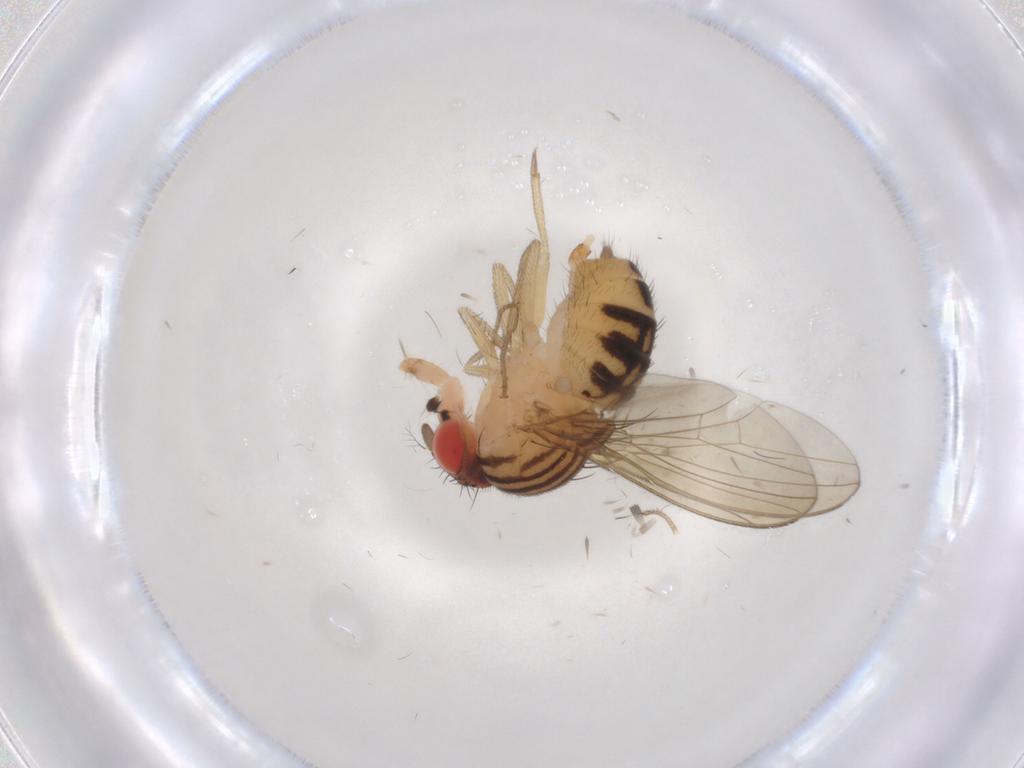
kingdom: Animalia
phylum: Arthropoda
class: Insecta
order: Diptera
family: Drosophilidae
